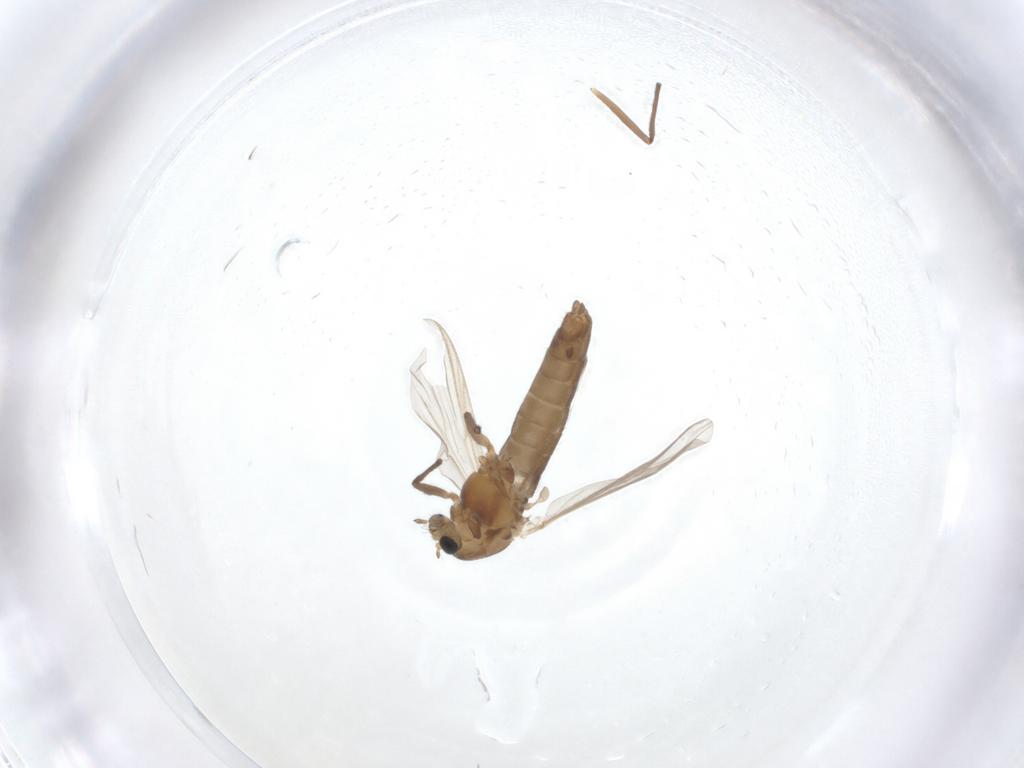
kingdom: Animalia
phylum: Arthropoda
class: Insecta
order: Diptera
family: Chironomidae
